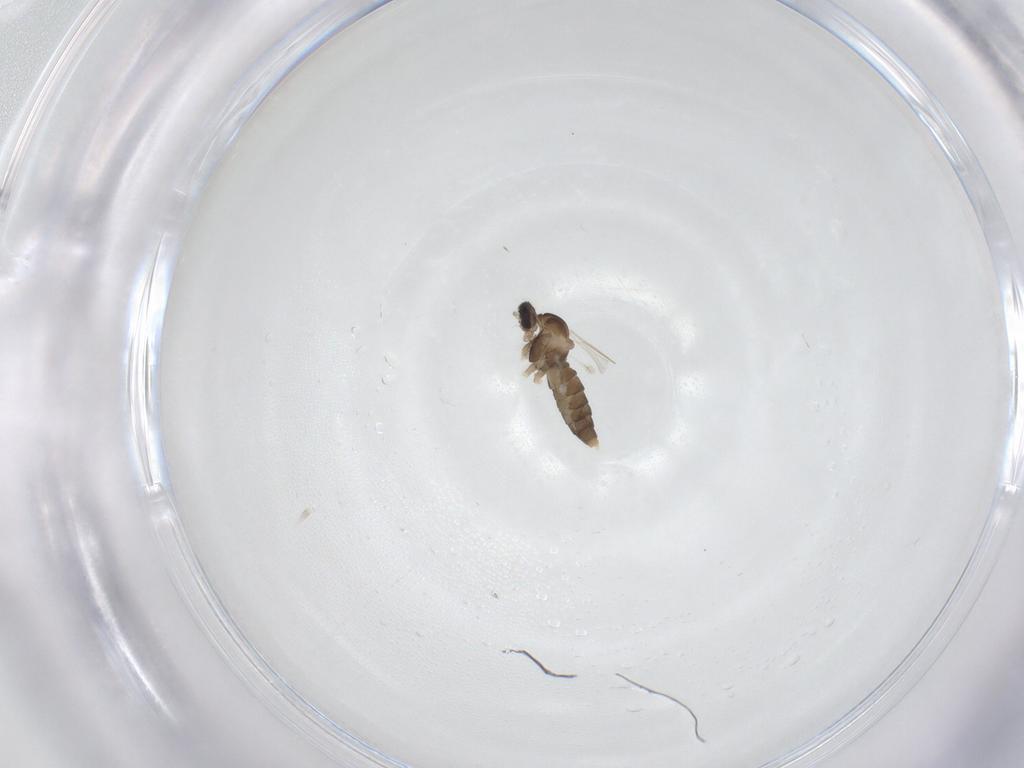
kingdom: Animalia
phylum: Arthropoda
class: Insecta
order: Diptera
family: Cecidomyiidae
